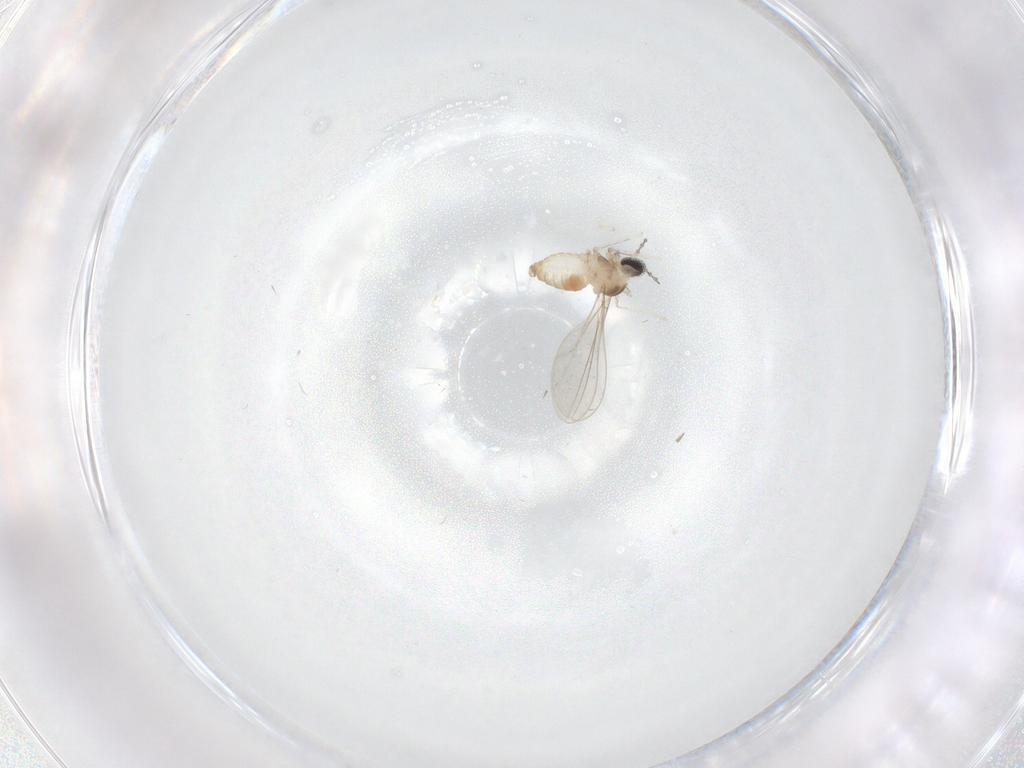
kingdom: Animalia
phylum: Arthropoda
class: Insecta
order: Diptera
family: Cecidomyiidae
